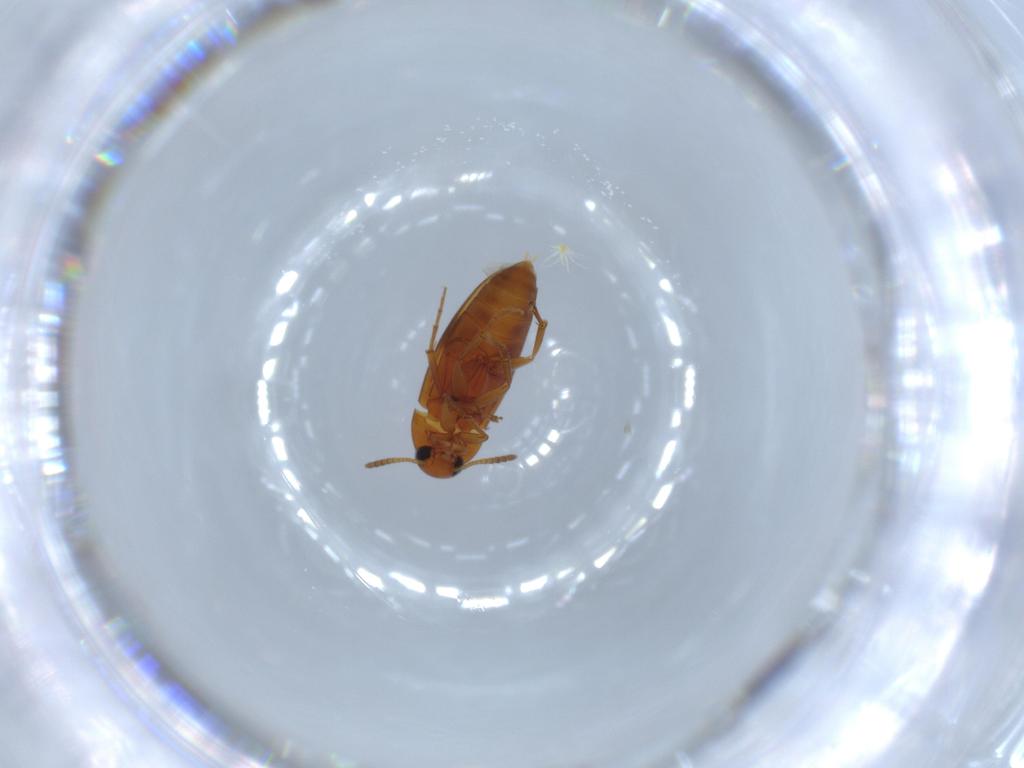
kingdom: Animalia
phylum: Arthropoda
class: Insecta
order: Coleoptera
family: Scraptiidae
